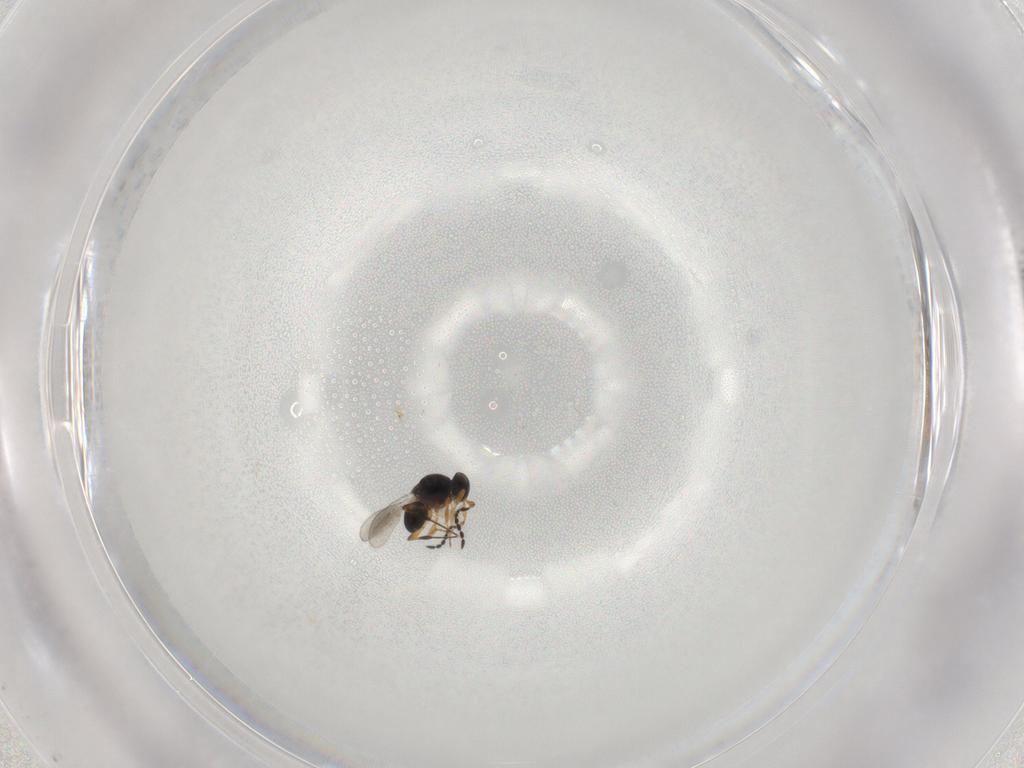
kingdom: Animalia
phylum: Arthropoda
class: Insecta
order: Hymenoptera
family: Platygastridae
